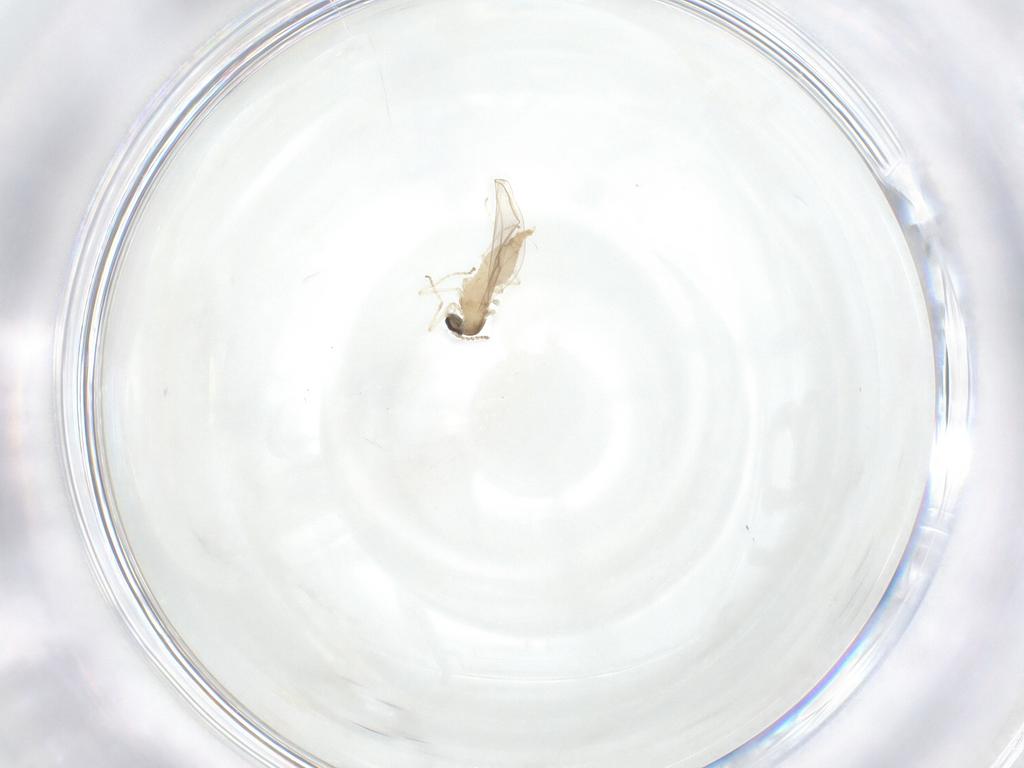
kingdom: Animalia
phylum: Arthropoda
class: Insecta
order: Diptera
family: Cecidomyiidae
